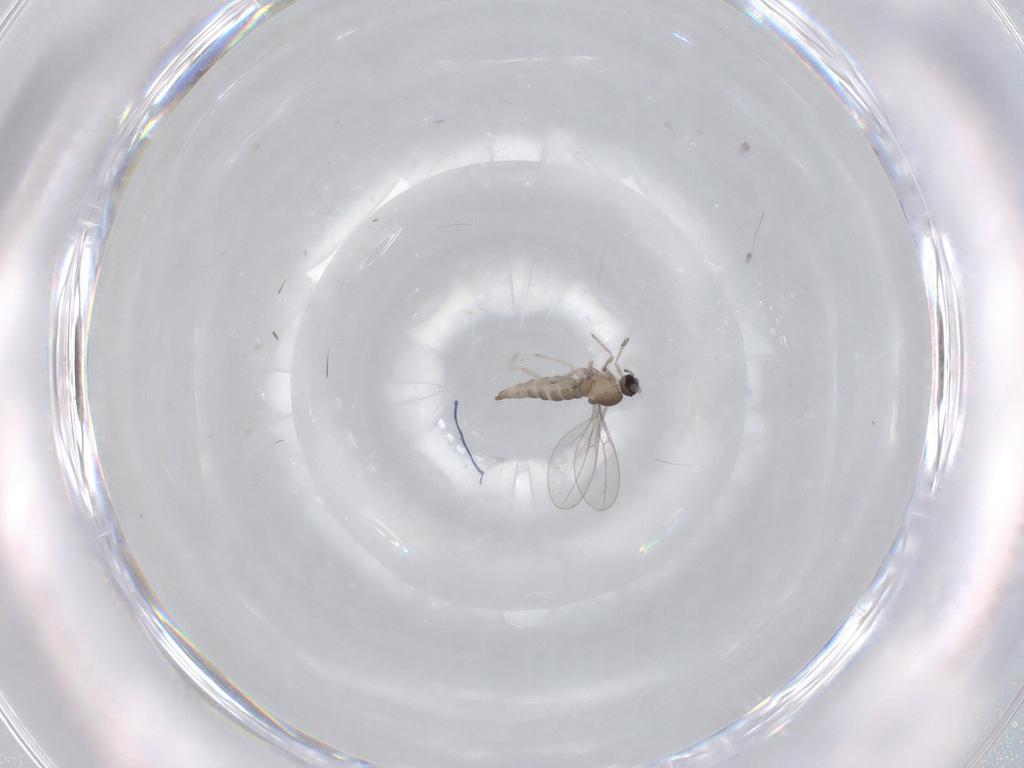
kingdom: Animalia
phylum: Arthropoda
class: Insecta
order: Diptera
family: Cecidomyiidae
